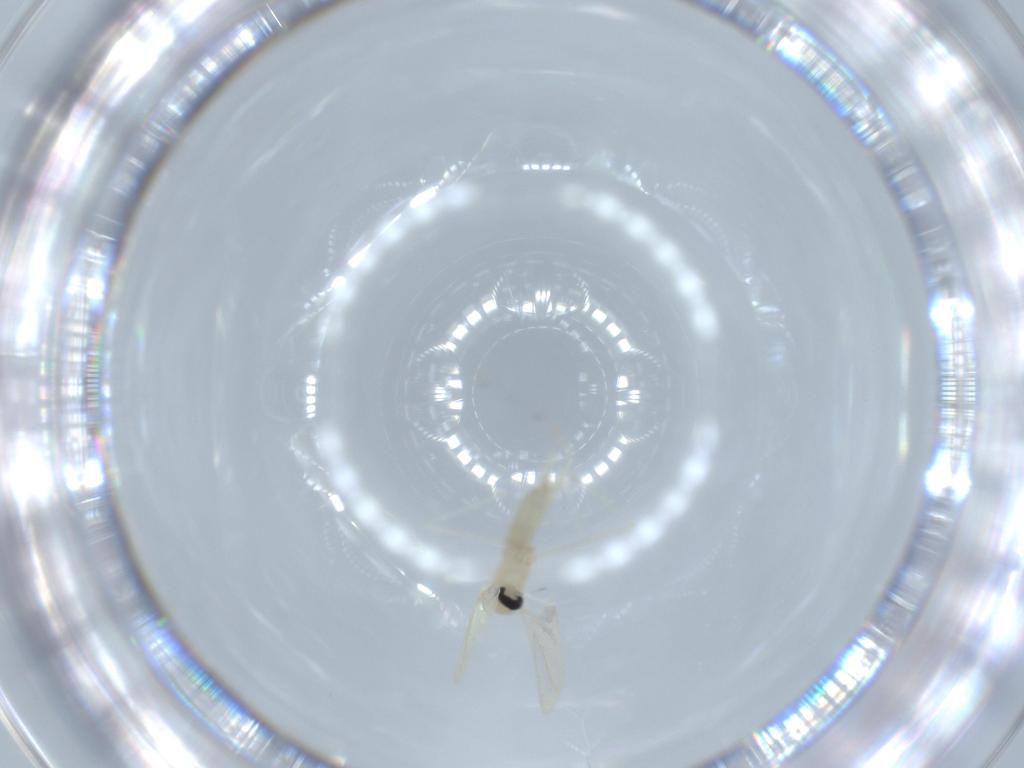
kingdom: Animalia
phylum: Arthropoda
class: Insecta
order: Diptera
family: Cecidomyiidae
